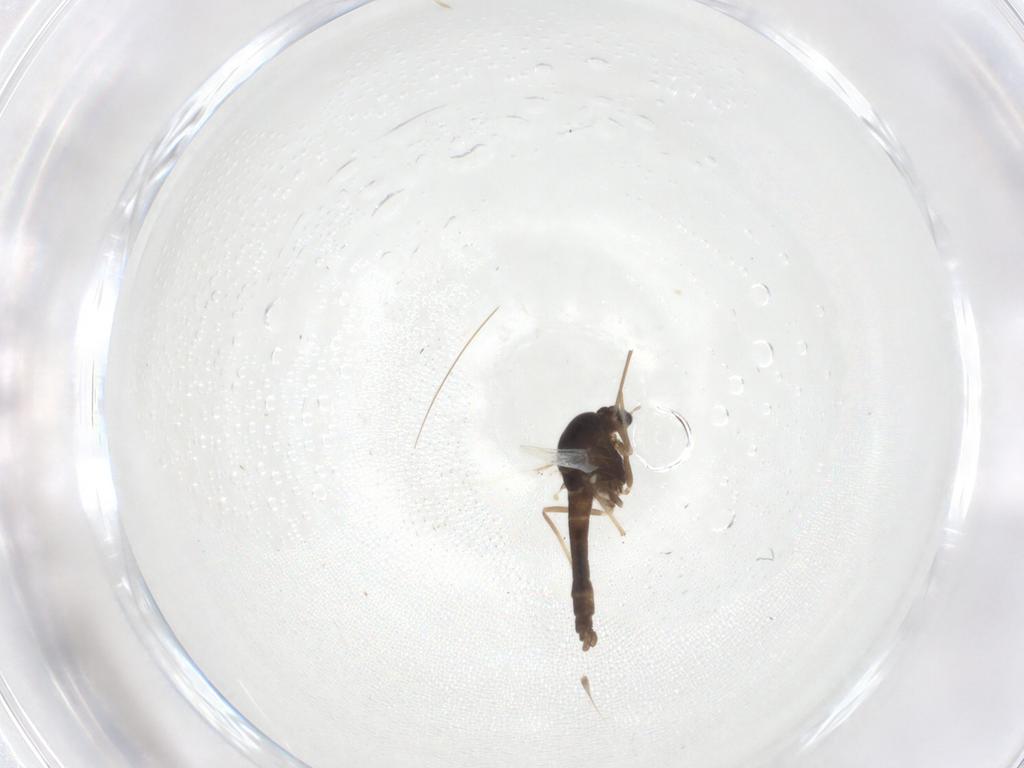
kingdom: Animalia
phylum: Arthropoda
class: Insecta
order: Diptera
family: Chironomidae
